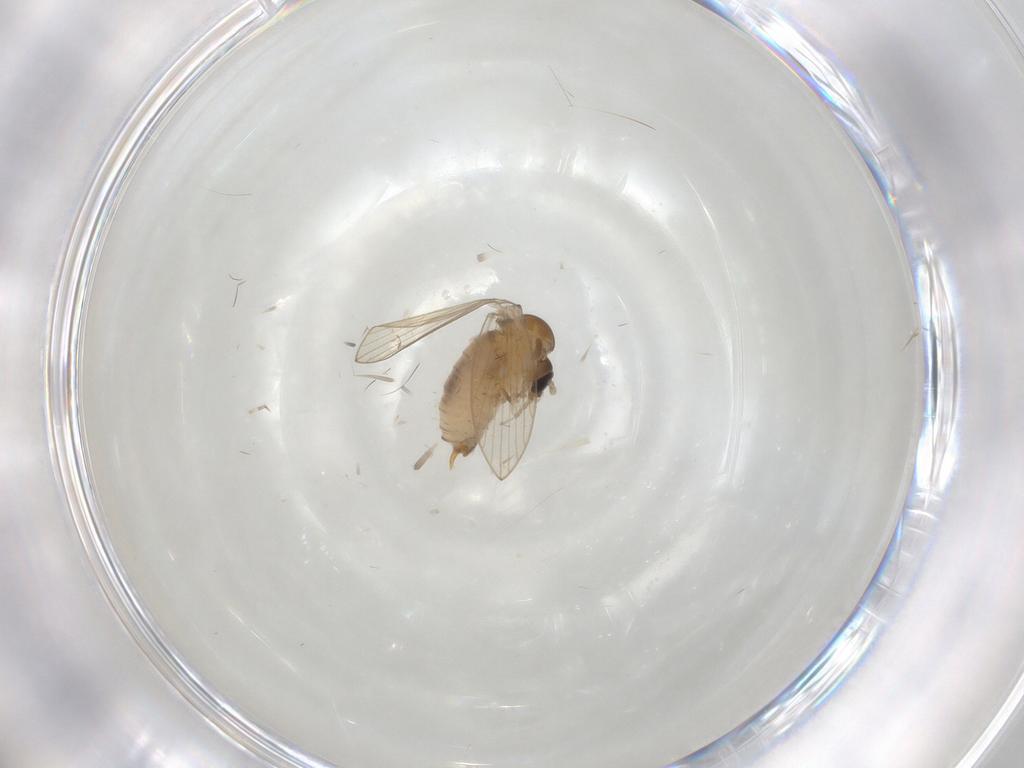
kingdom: Animalia
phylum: Arthropoda
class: Insecta
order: Diptera
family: Psychodidae
